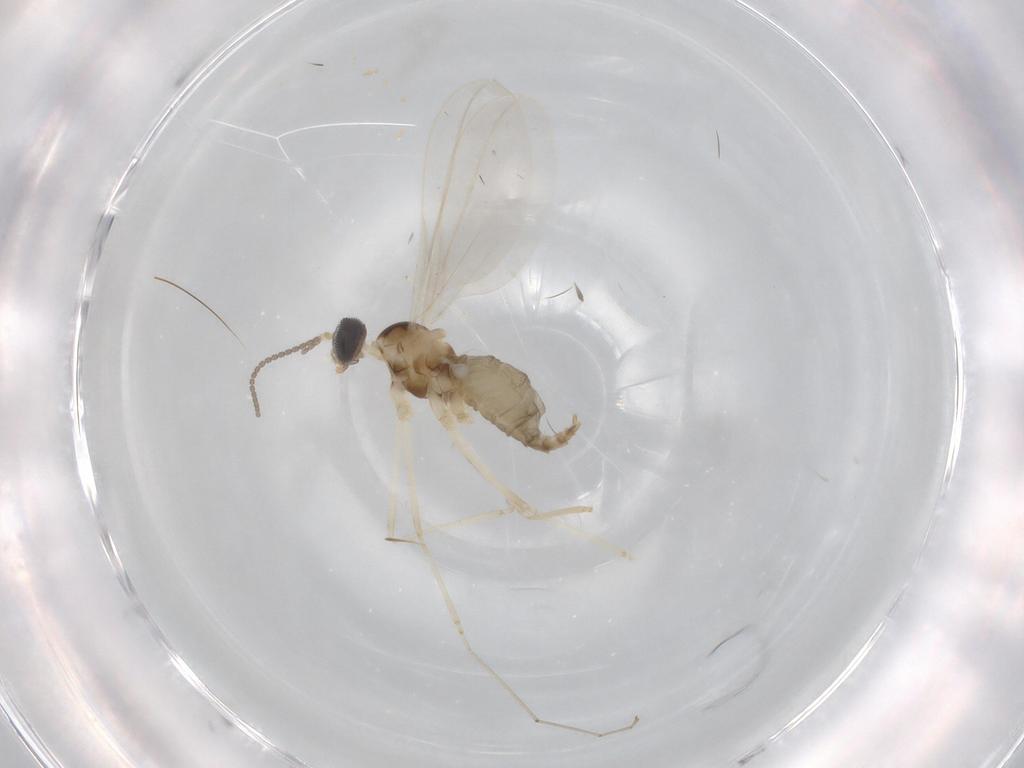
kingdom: Animalia
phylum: Arthropoda
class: Insecta
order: Diptera
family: Cecidomyiidae
